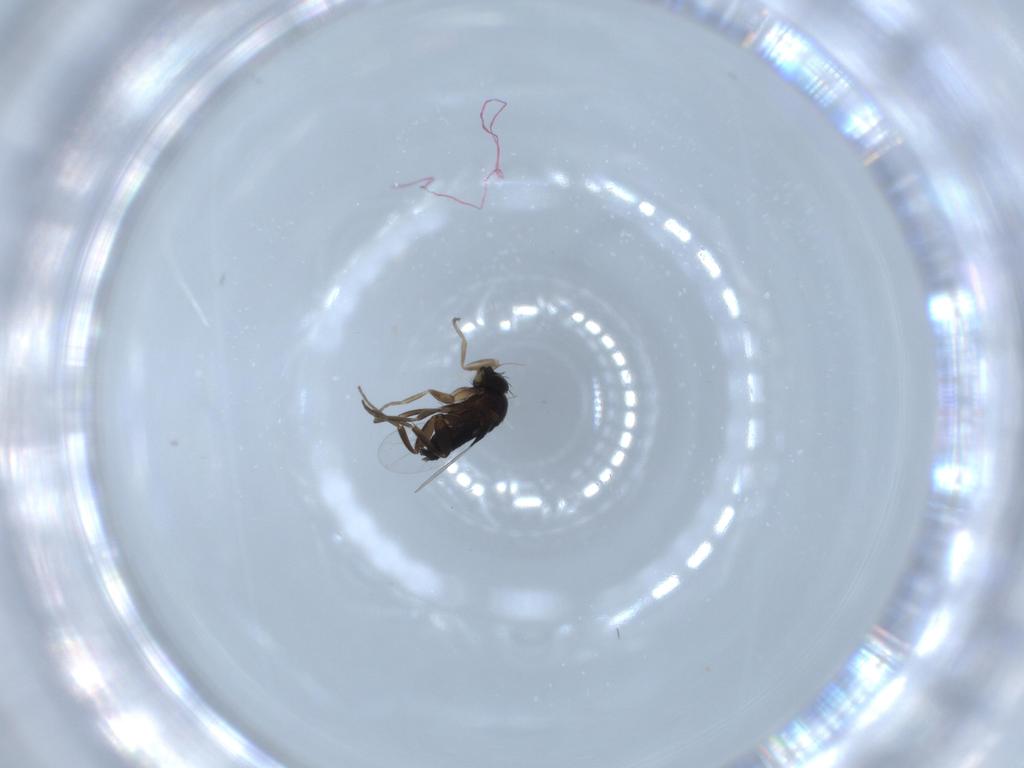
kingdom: Animalia
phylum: Arthropoda
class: Insecta
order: Diptera
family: Phoridae
